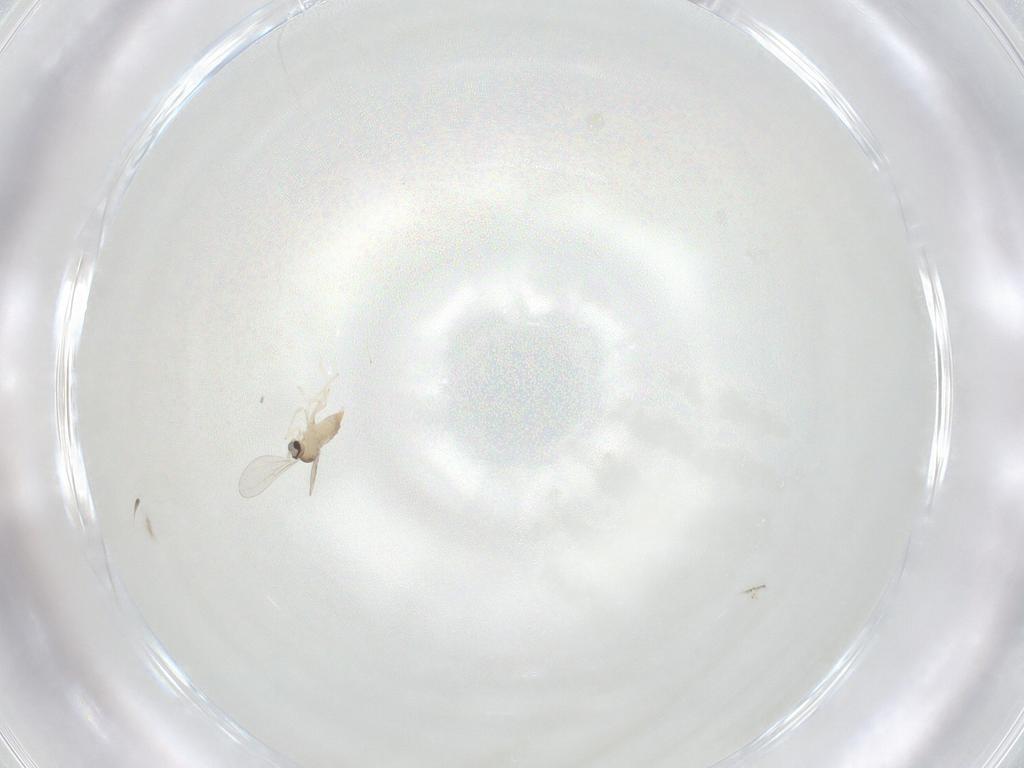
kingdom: Animalia
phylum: Arthropoda
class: Insecta
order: Diptera
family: Cecidomyiidae
